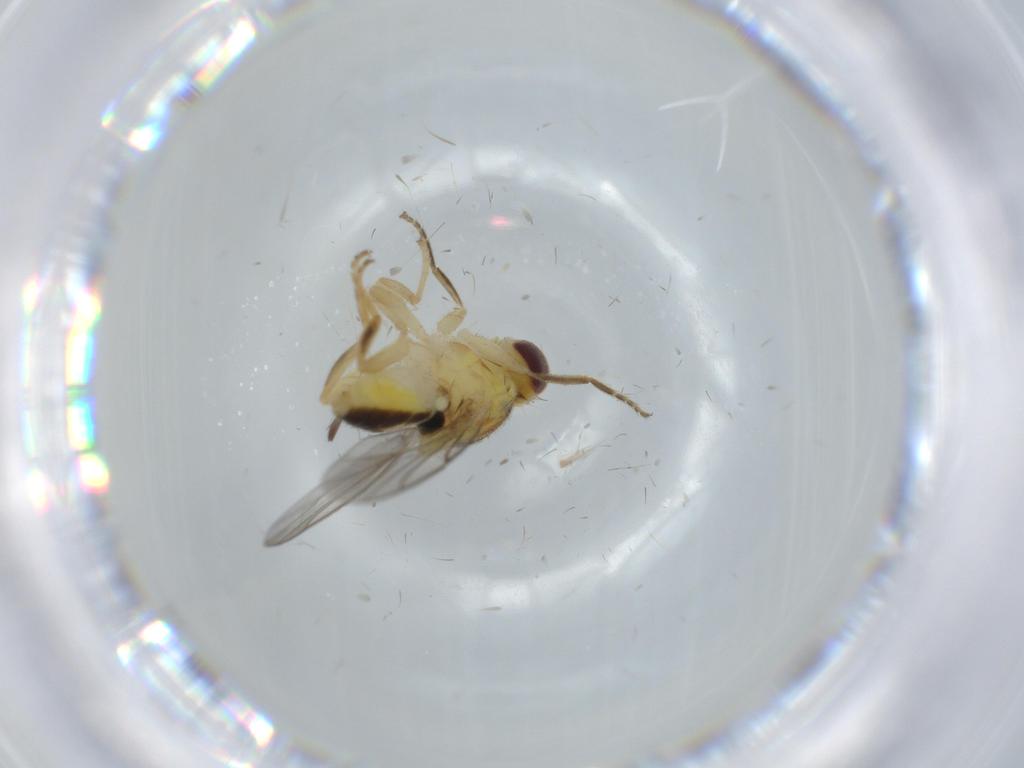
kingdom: Animalia
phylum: Arthropoda
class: Insecta
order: Diptera
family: Chloropidae
